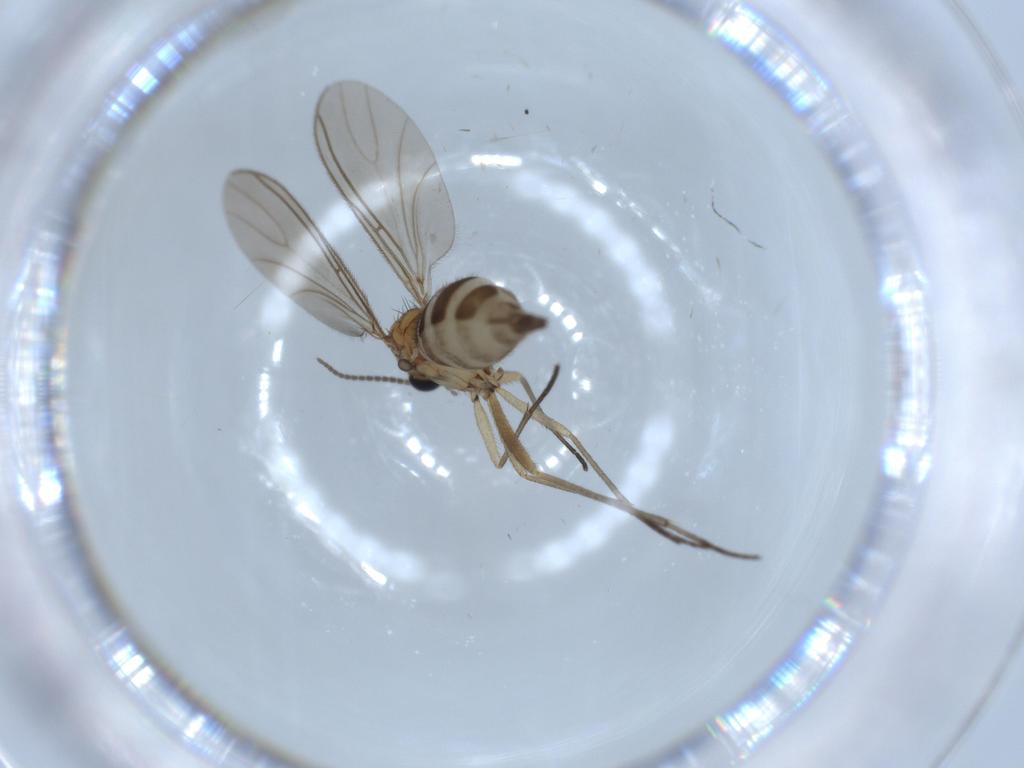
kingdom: Animalia
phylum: Arthropoda
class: Insecta
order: Diptera
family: Sciaridae
